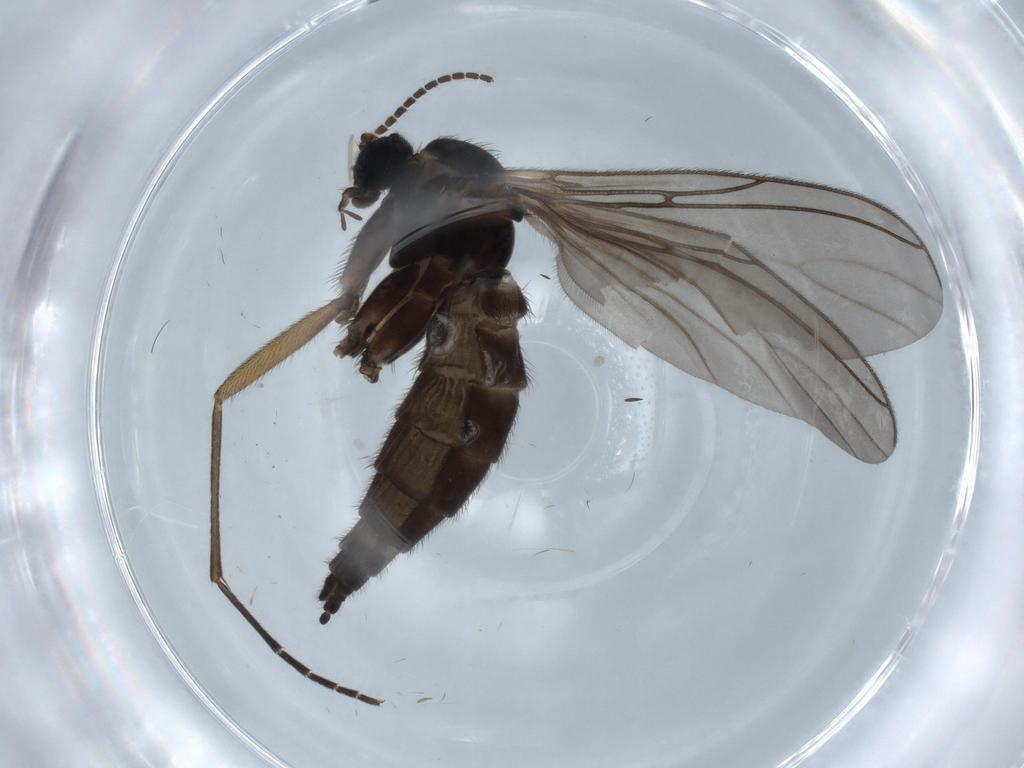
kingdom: Animalia
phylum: Arthropoda
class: Insecta
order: Diptera
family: Sciaridae
